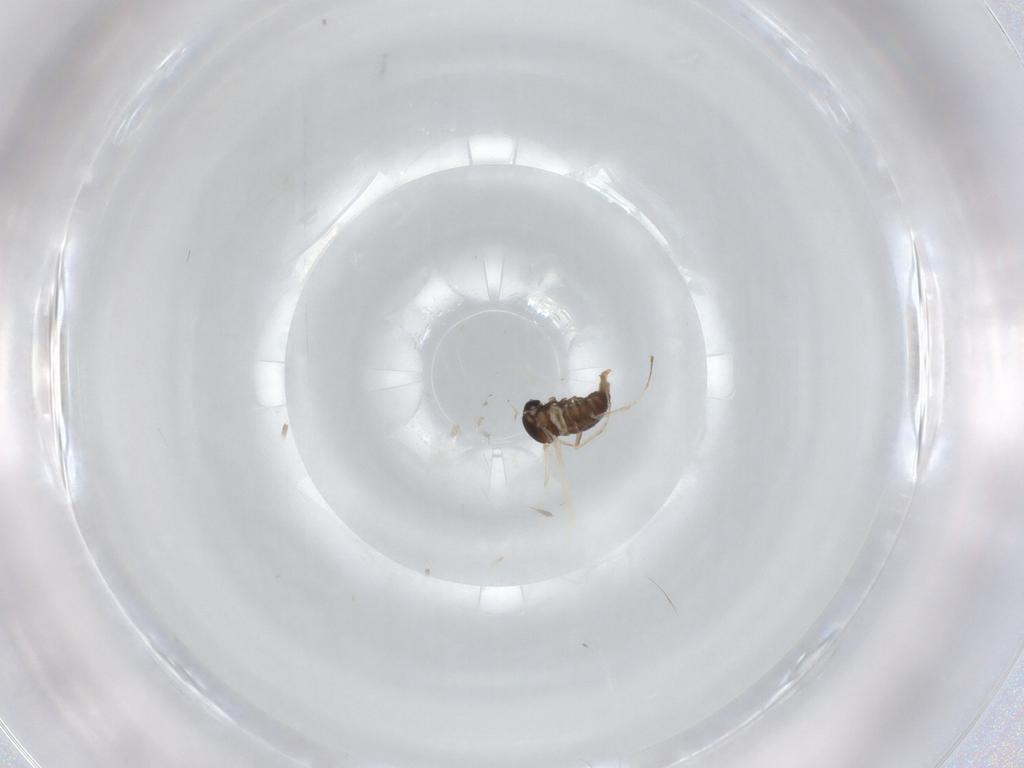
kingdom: Animalia
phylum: Arthropoda
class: Insecta
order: Diptera
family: Cecidomyiidae
